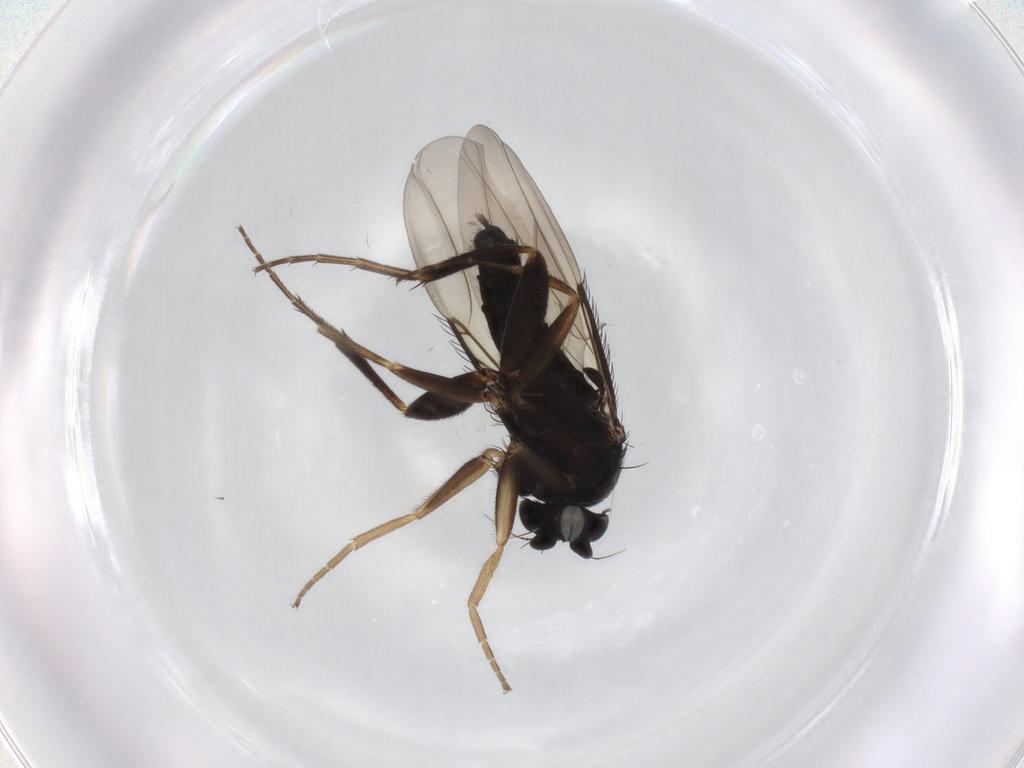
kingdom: Animalia
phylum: Arthropoda
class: Insecta
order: Diptera
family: Phoridae
